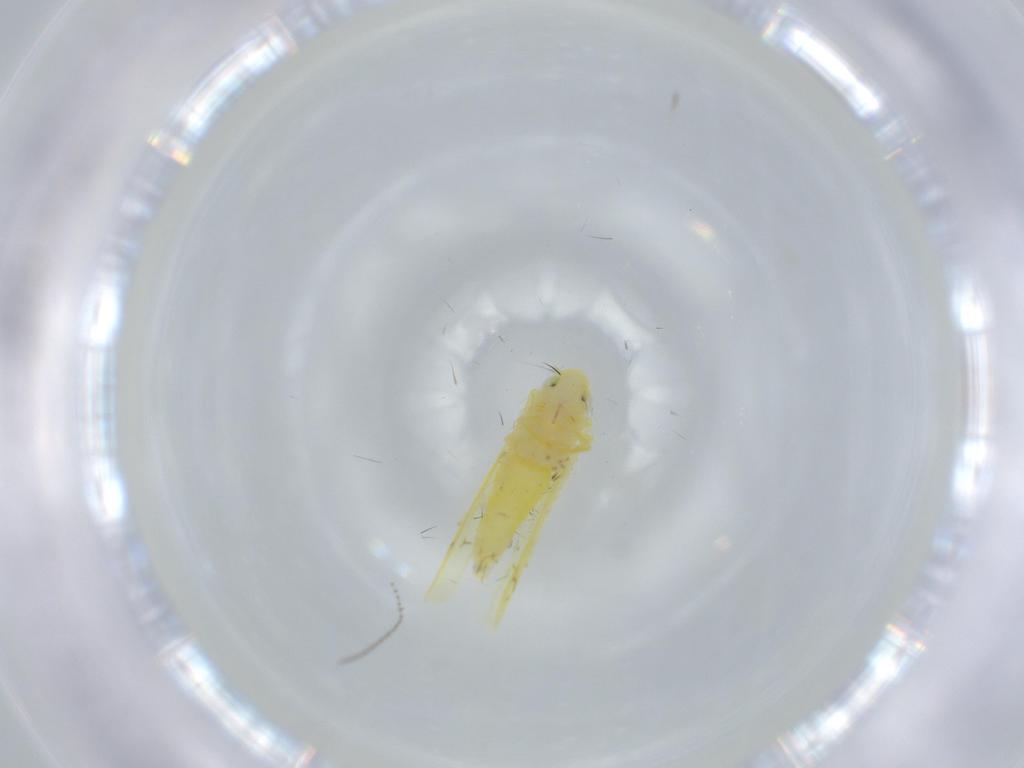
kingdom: Animalia
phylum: Arthropoda
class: Insecta
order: Hemiptera
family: Cicadellidae
